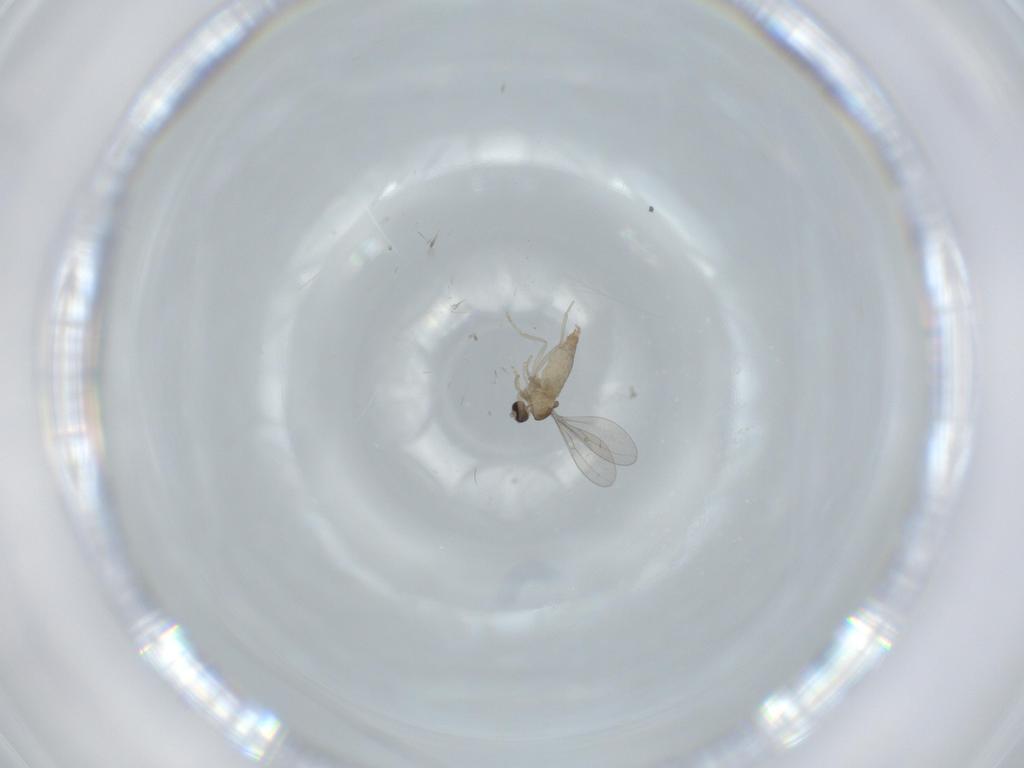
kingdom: Animalia
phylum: Arthropoda
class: Insecta
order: Diptera
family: Cecidomyiidae
